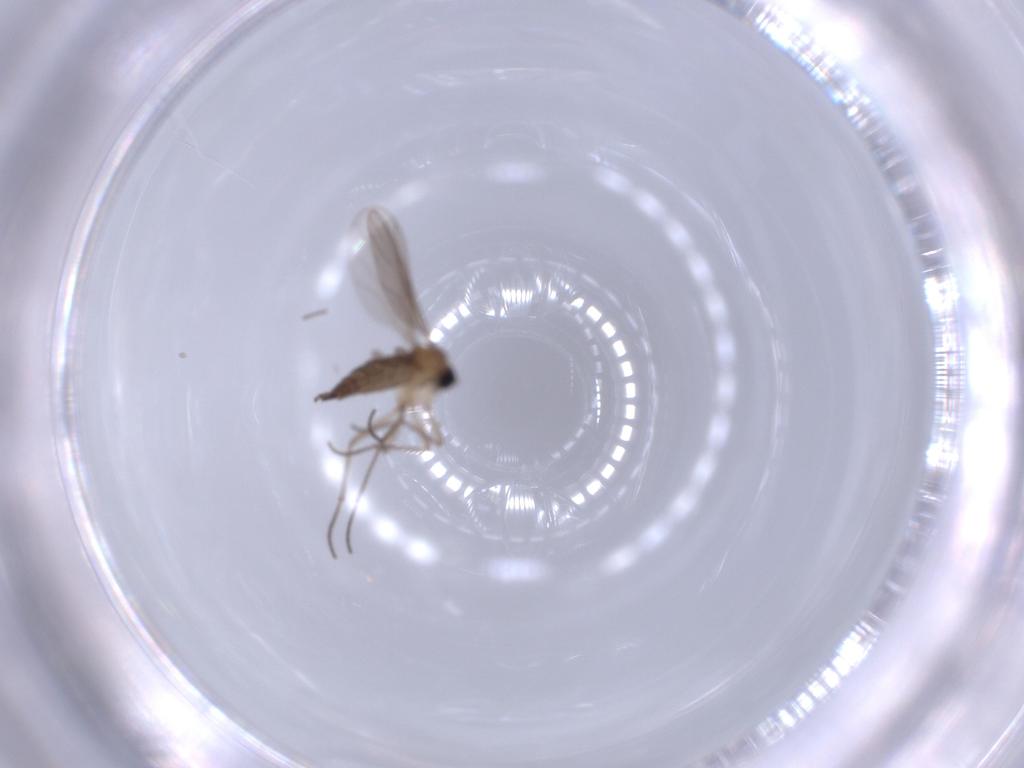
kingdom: Animalia
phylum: Arthropoda
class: Insecta
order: Diptera
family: Sciaridae
